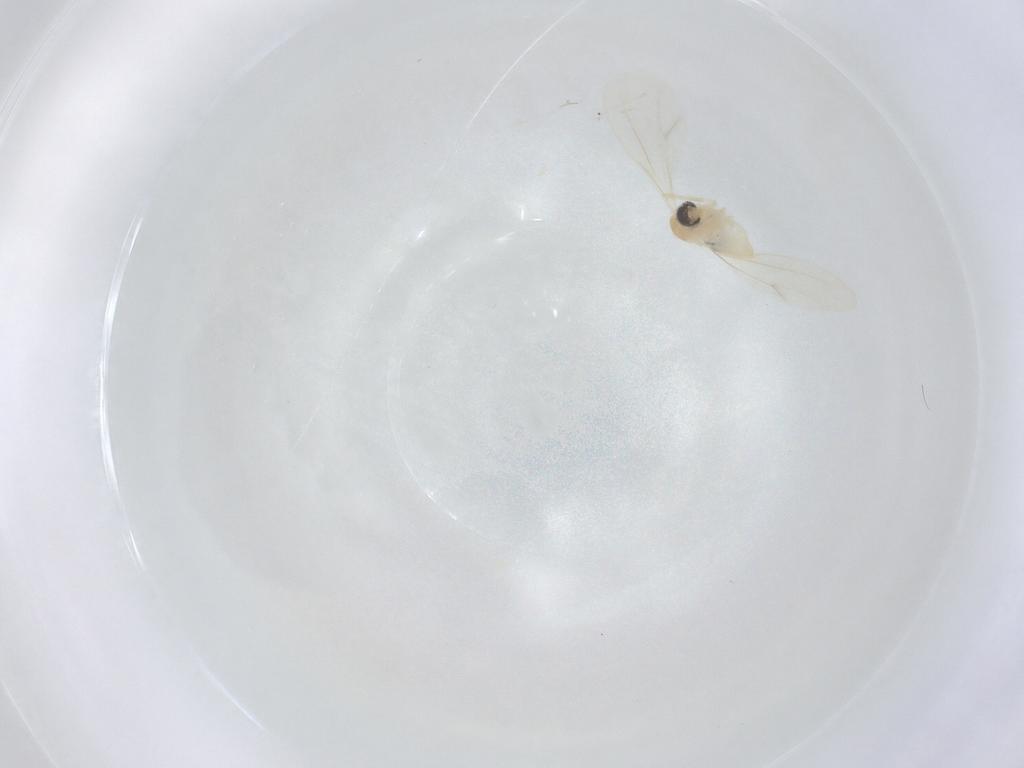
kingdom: Animalia
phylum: Arthropoda
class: Insecta
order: Diptera
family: Cecidomyiidae
